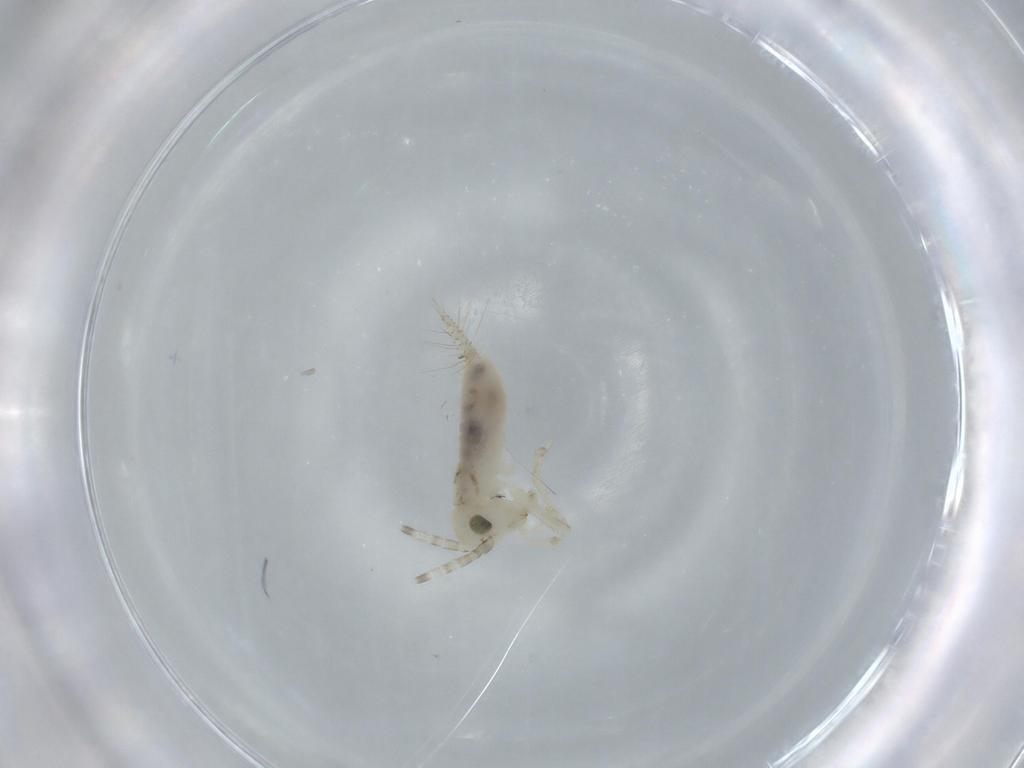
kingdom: Animalia
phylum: Arthropoda
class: Insecta
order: Orthoptera
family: Trigonidiidae
